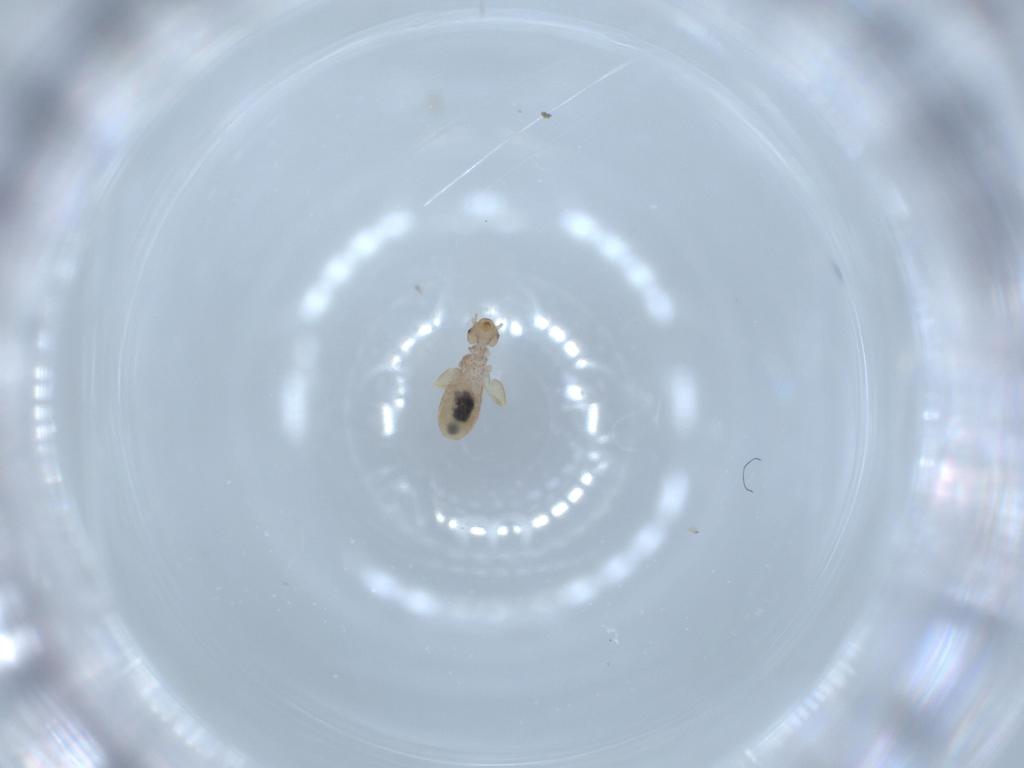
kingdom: Animalia
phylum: Arthropoda
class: Insecta
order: Psocodea
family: Liposcelididae
